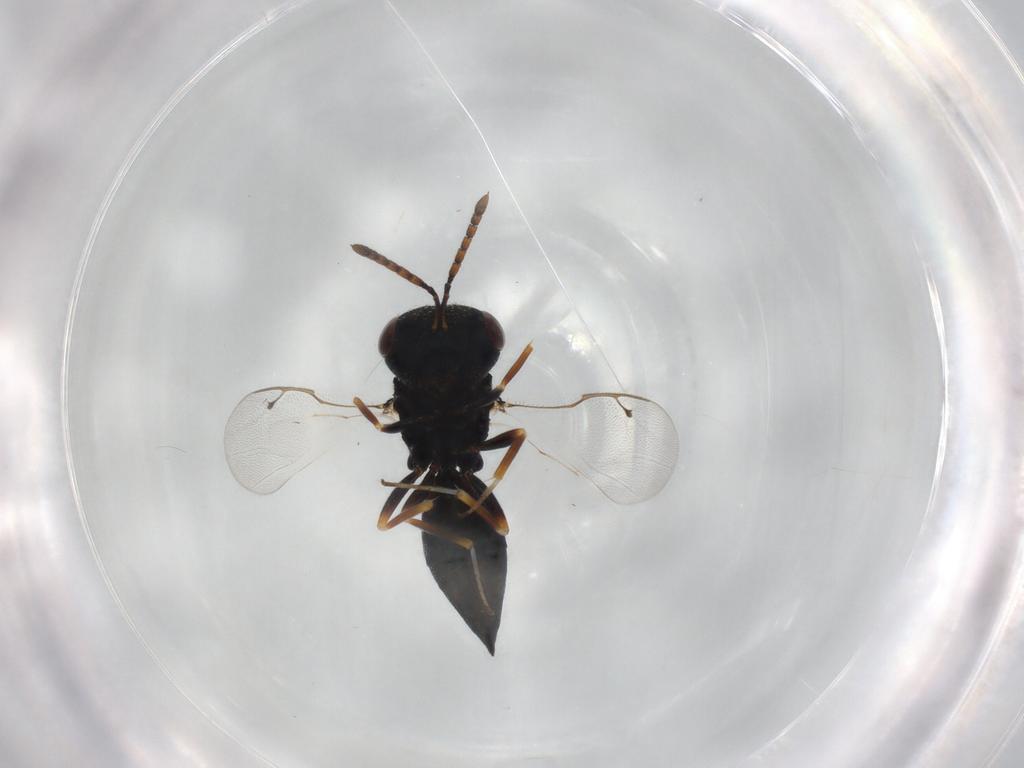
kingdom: Animalia
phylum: Arthropoda
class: Insecta
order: Hymenoptera
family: Pteromalidae
